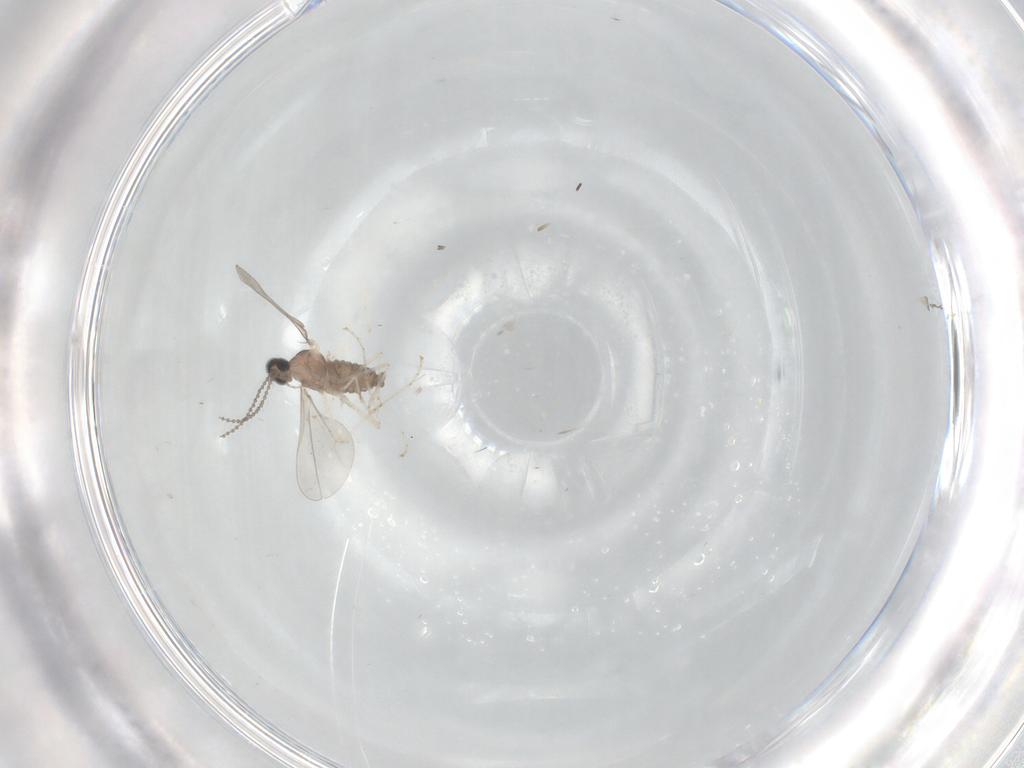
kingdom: Animalia
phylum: Arthropoda
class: Insecta
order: Diptera
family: Cecidomyiidae
